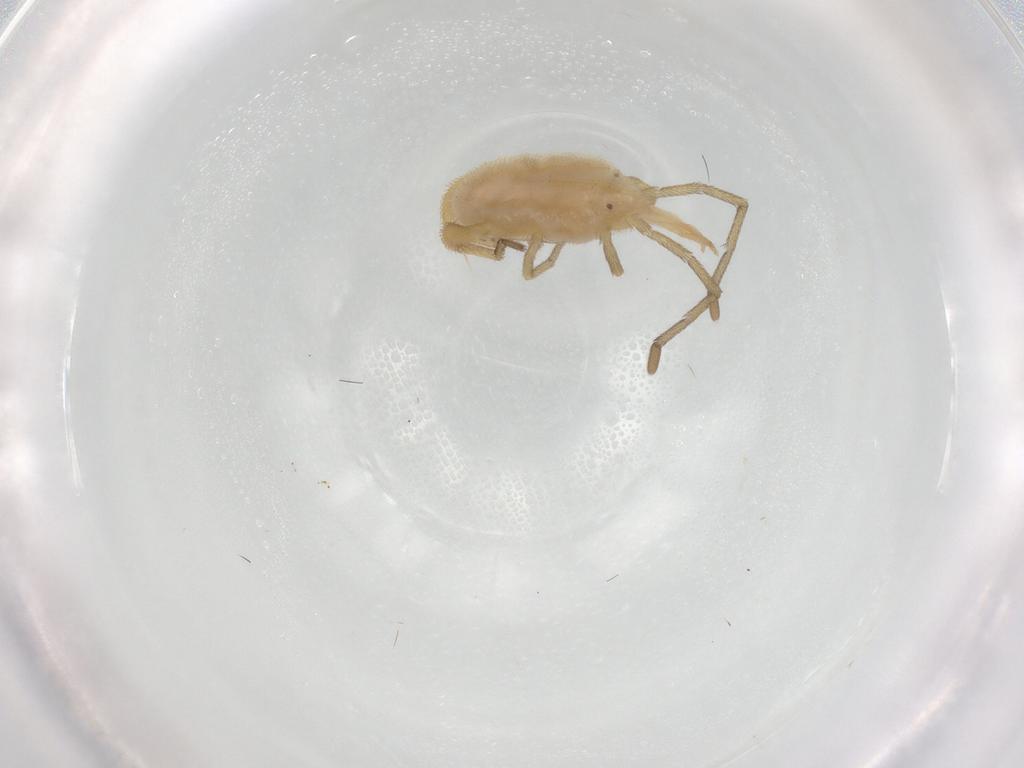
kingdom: Animalia
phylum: Arthropoda
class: Arachnida
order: Trombidiformes
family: Smarididae
